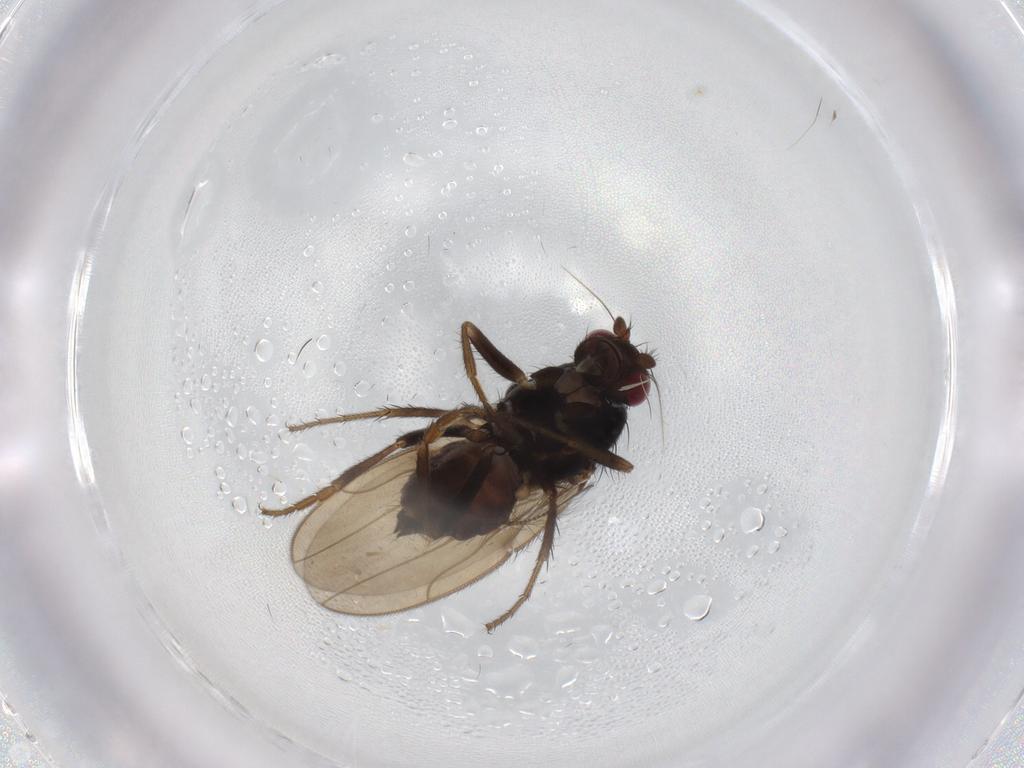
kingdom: Animalia
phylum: Arthropoda
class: Insecta
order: Diptera
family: Sphaeroceridae
